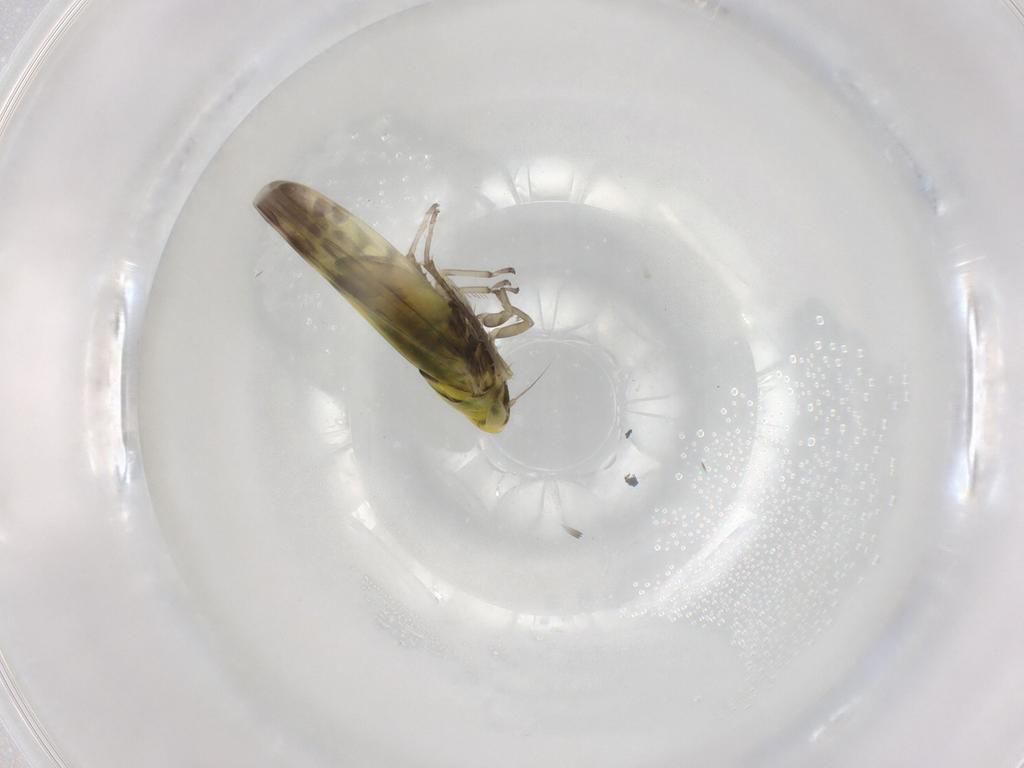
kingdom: Animalia
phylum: Arthropoda
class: Insecta
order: Hemiptera
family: Cicadellidae
